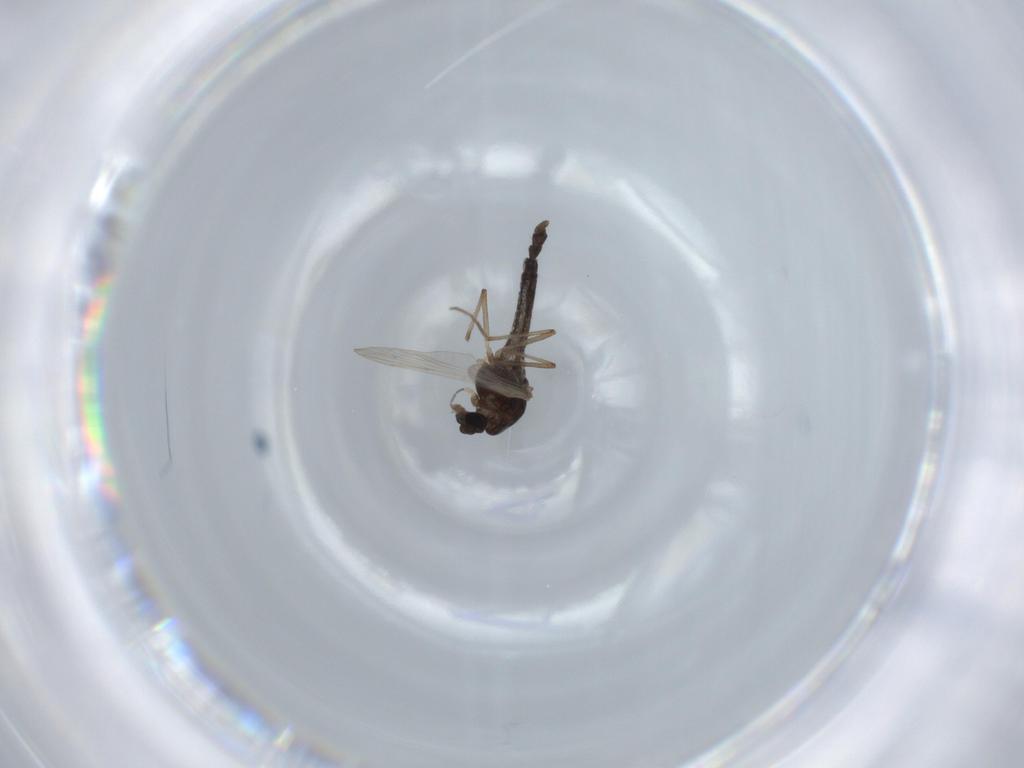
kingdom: Animalia
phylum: Arthropoda
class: Insecta
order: Diptera
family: Chironomidae
